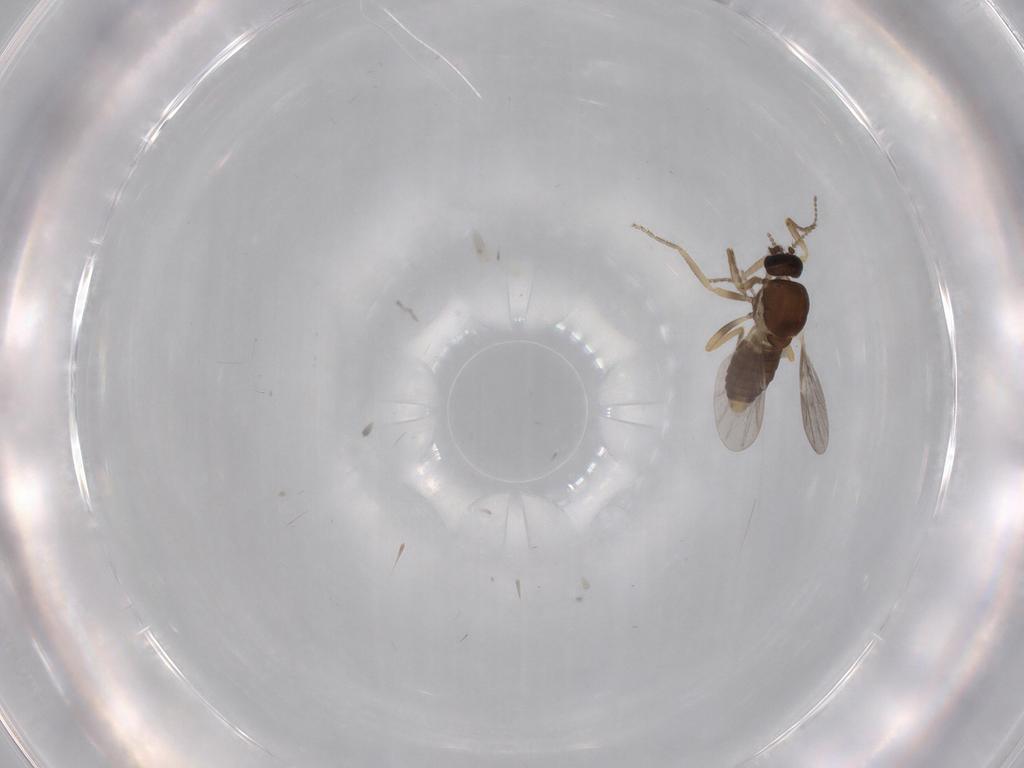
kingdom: Animalia
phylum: Arthropoda
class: Insecta
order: Diptera
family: Ceratopogonidae
